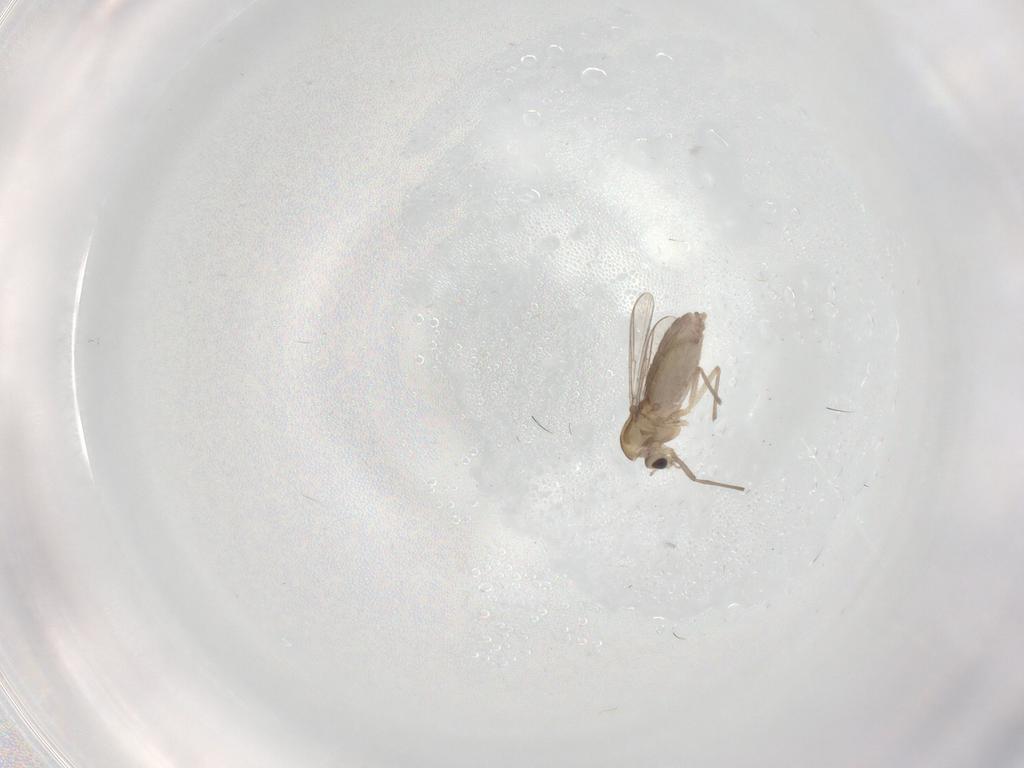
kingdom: Animalia
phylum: Arthropoda
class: Insecta
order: Diptera
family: Chironomidae
